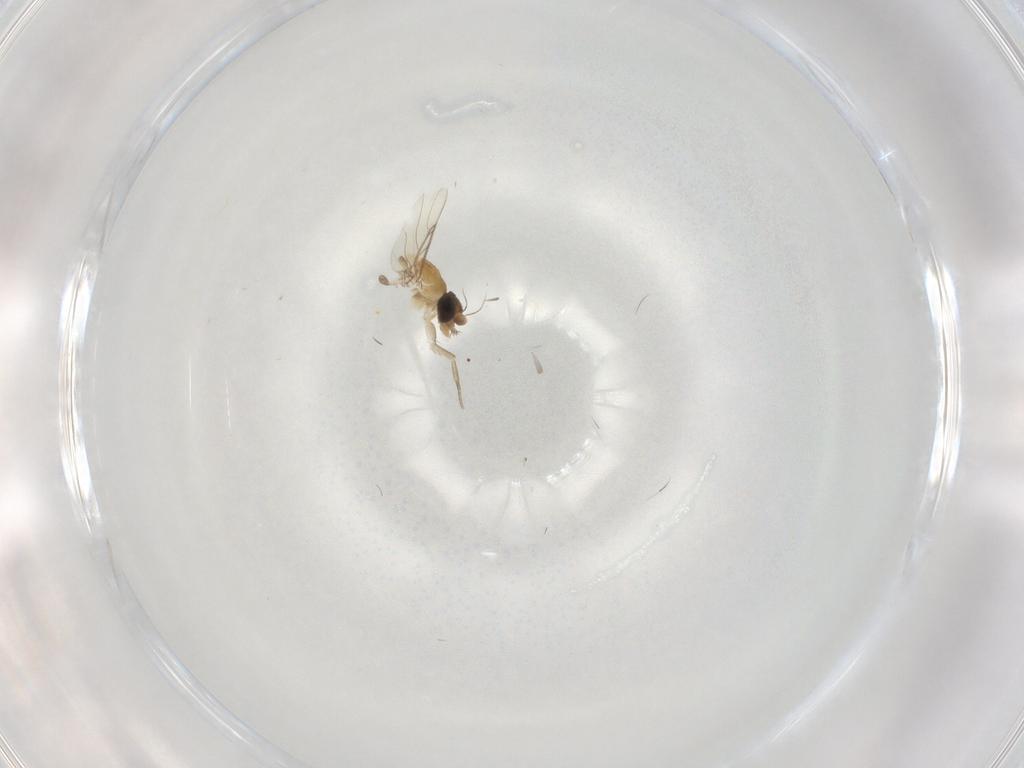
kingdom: Animalia
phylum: Arthropoda
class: Insecta
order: Diptera
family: Phoridae
